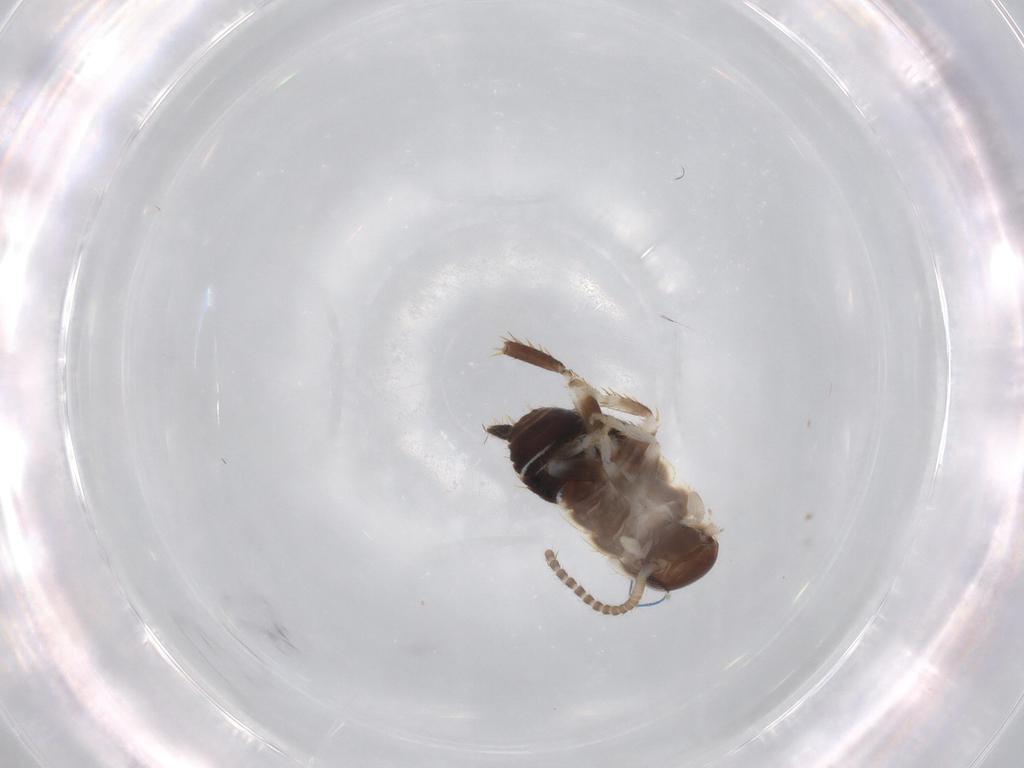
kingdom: Animalia
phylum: Arthropoda
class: Insecta
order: Blattodea
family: Ectobiidae
